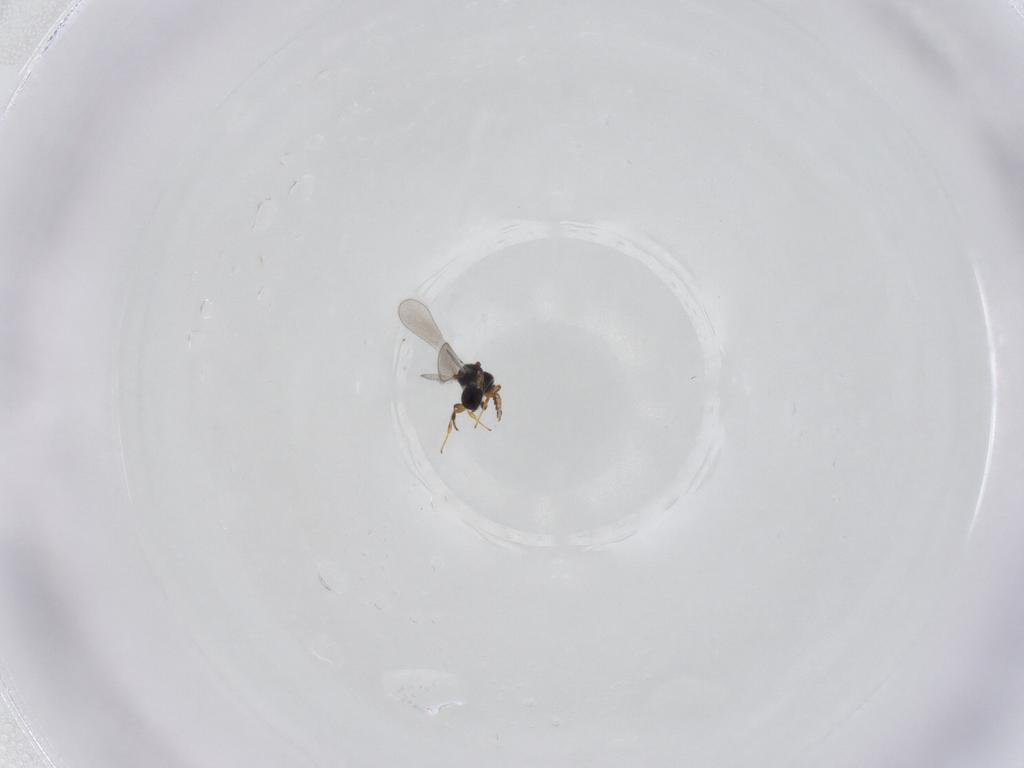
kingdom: Animalia
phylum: Arthropoda
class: Insecta
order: Hymenoptera
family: Platygastridae
